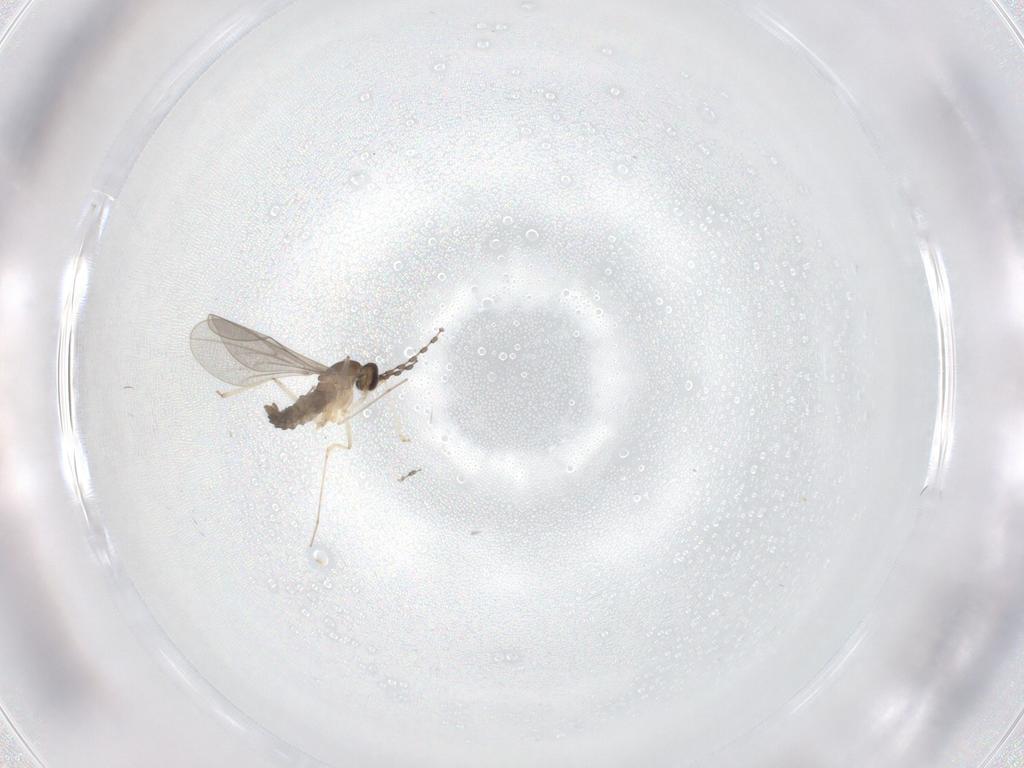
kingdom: Animalia
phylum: Arthropoda
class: Insecta
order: Diptera
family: Cecidomyiidae
